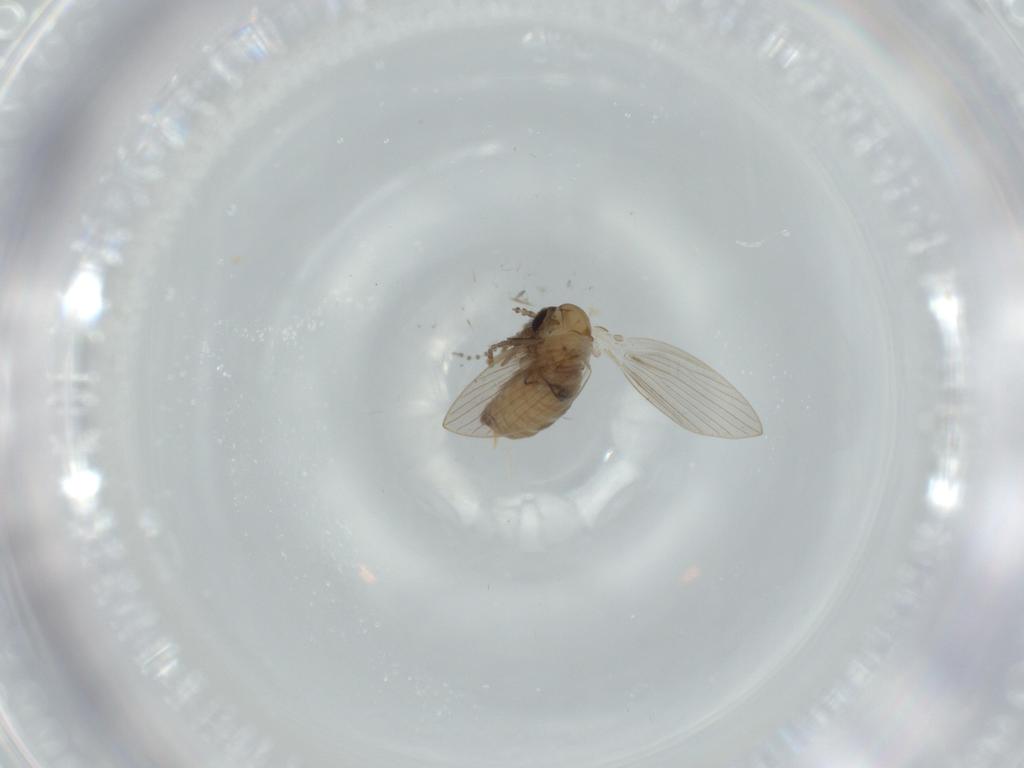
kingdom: Animalia
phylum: Arthropoda
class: Insecta
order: Diptera
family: Psychodidae
